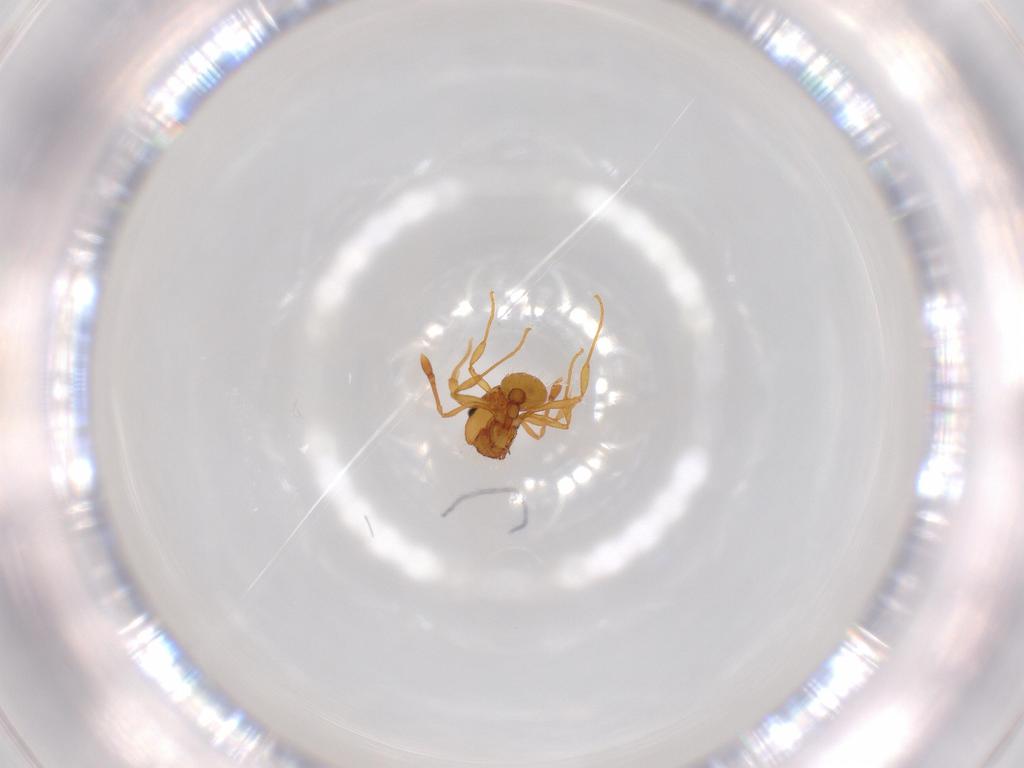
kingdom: Animalia
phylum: Arthropoda
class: Insecta
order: Hymenoptera
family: Formicidae
